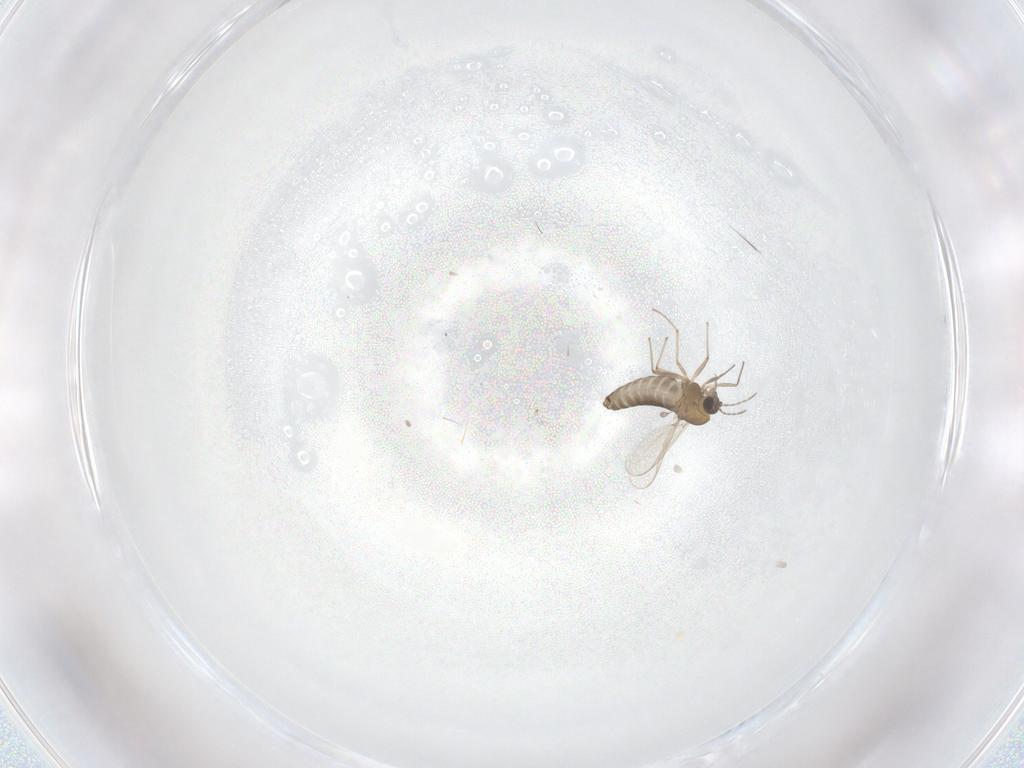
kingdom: Animalia
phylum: Arthropoda
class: Insecta
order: Diptera
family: Chironomidae
